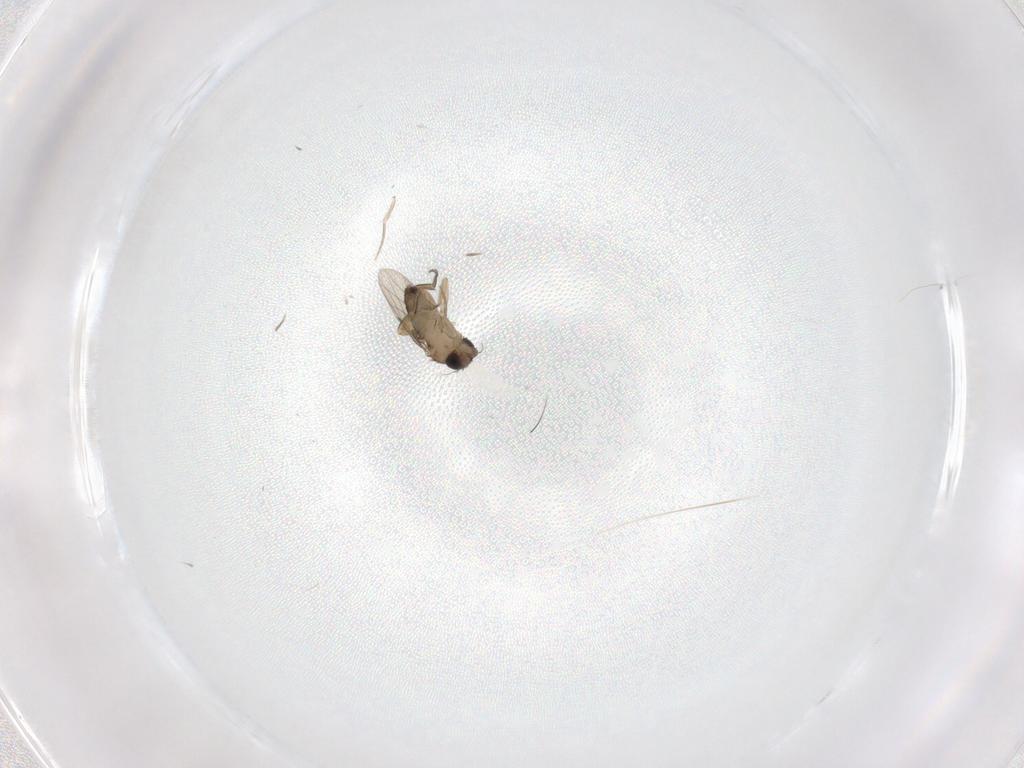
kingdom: Animalia
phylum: Arthropoda
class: Insecta
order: Diptera
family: Phoridae
